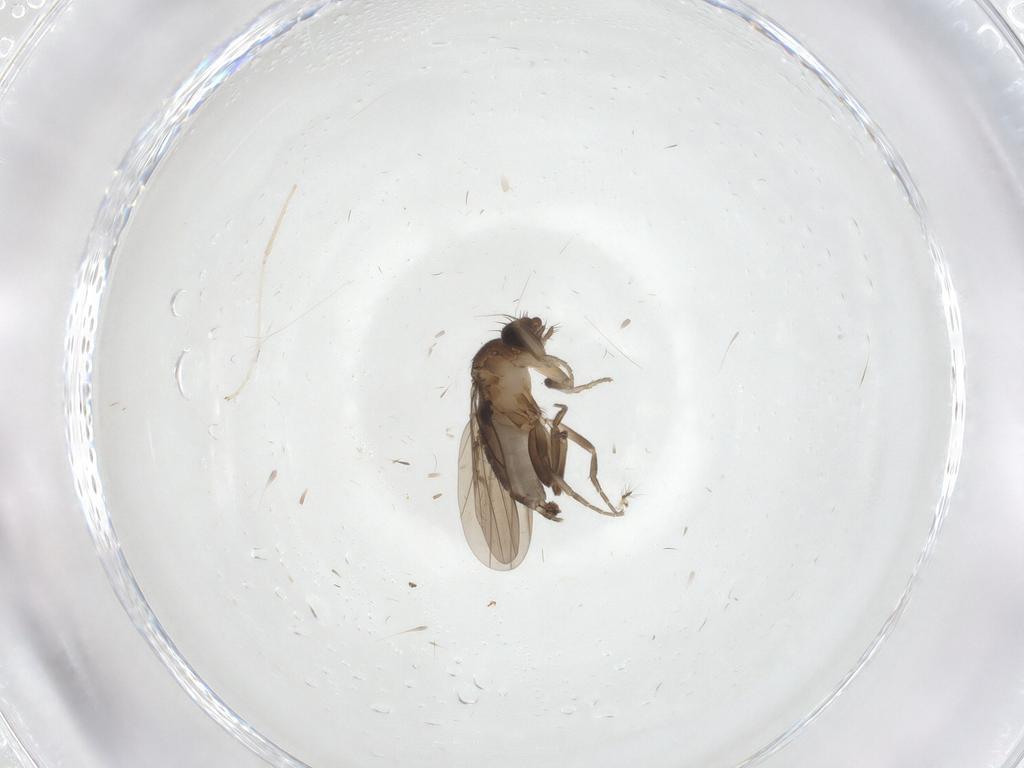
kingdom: Animalia
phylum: Arthropoda
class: Insecta
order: Diptera
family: Chironomidae
